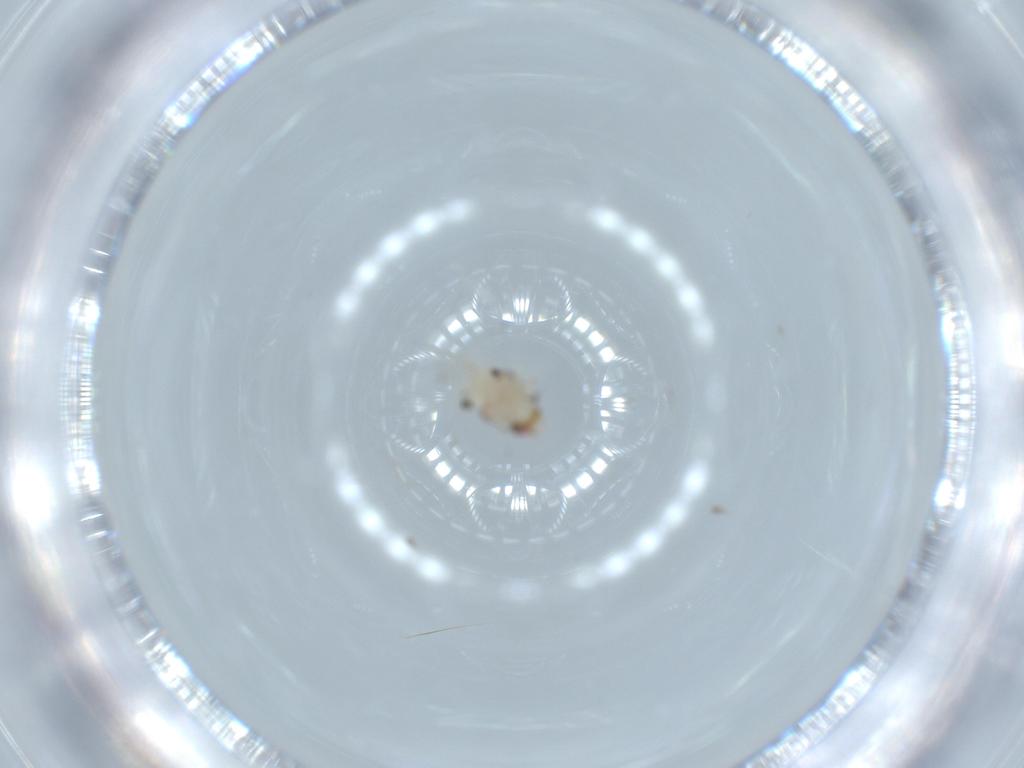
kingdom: Animalia
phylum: Arthropoda
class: Insecta
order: Hemiptera
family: Nogodinidae
